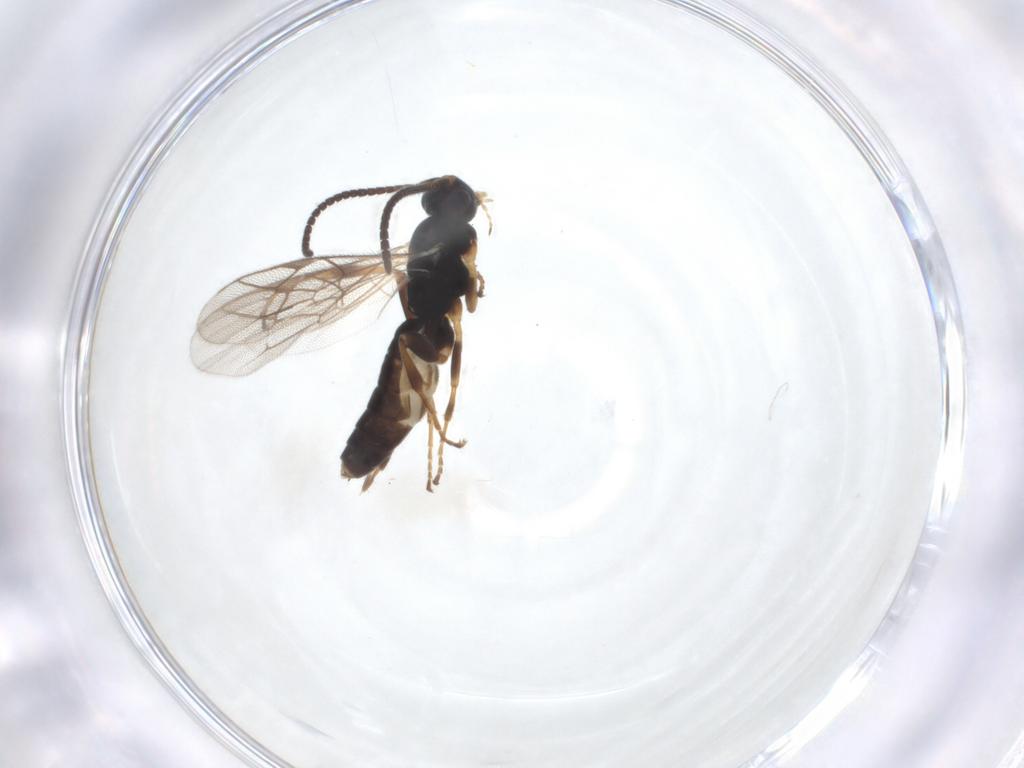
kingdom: Animalia
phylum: Arthropoda
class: Insecta
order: Hymenoptera
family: Ichneumonidae
